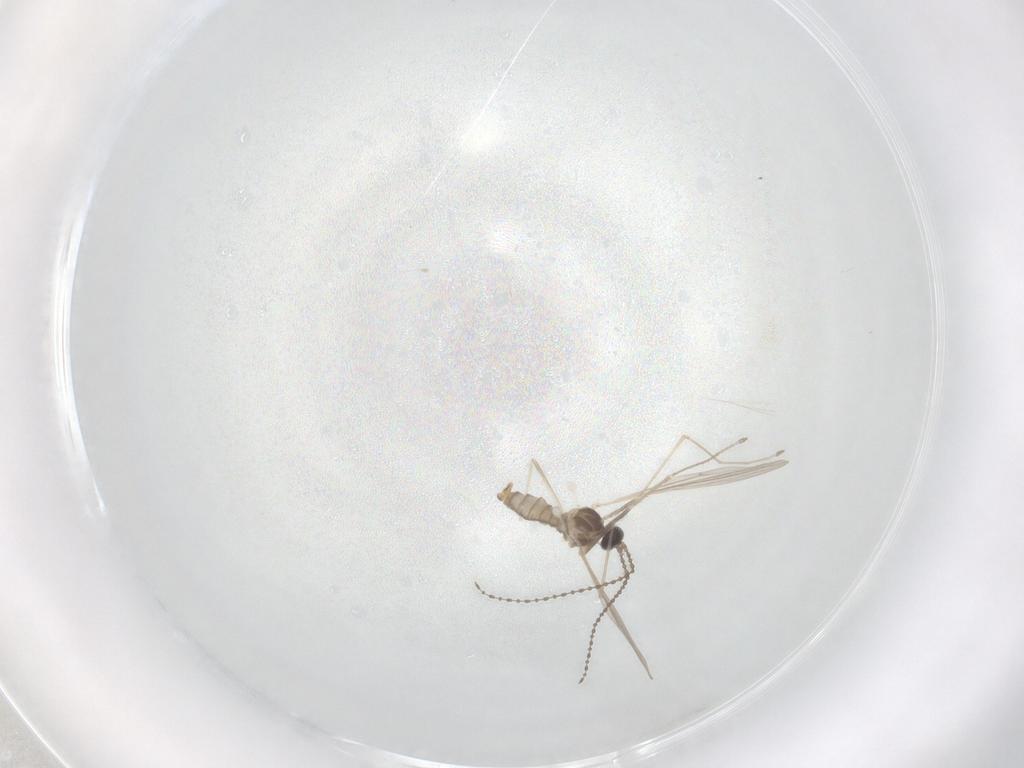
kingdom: Animalia
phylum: Arthropoda
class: Insecta
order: Diptera
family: Cecidomyiidae
